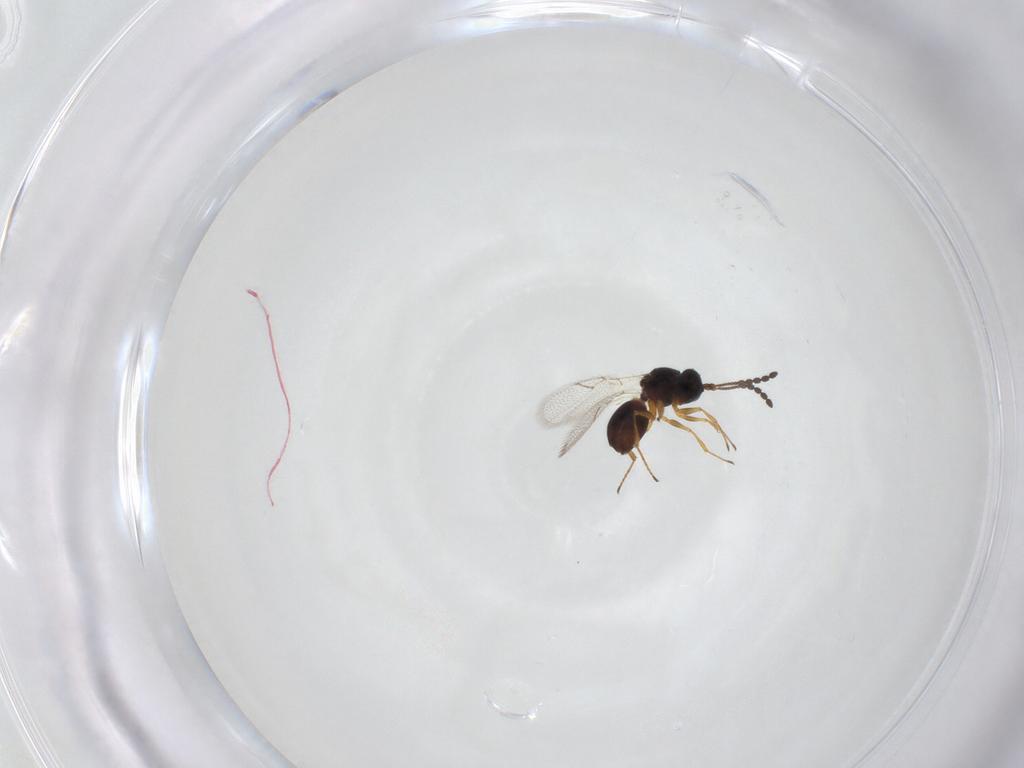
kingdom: Animalia
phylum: Arthropoda
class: Insecta
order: Hymenoptera
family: Figitidae
